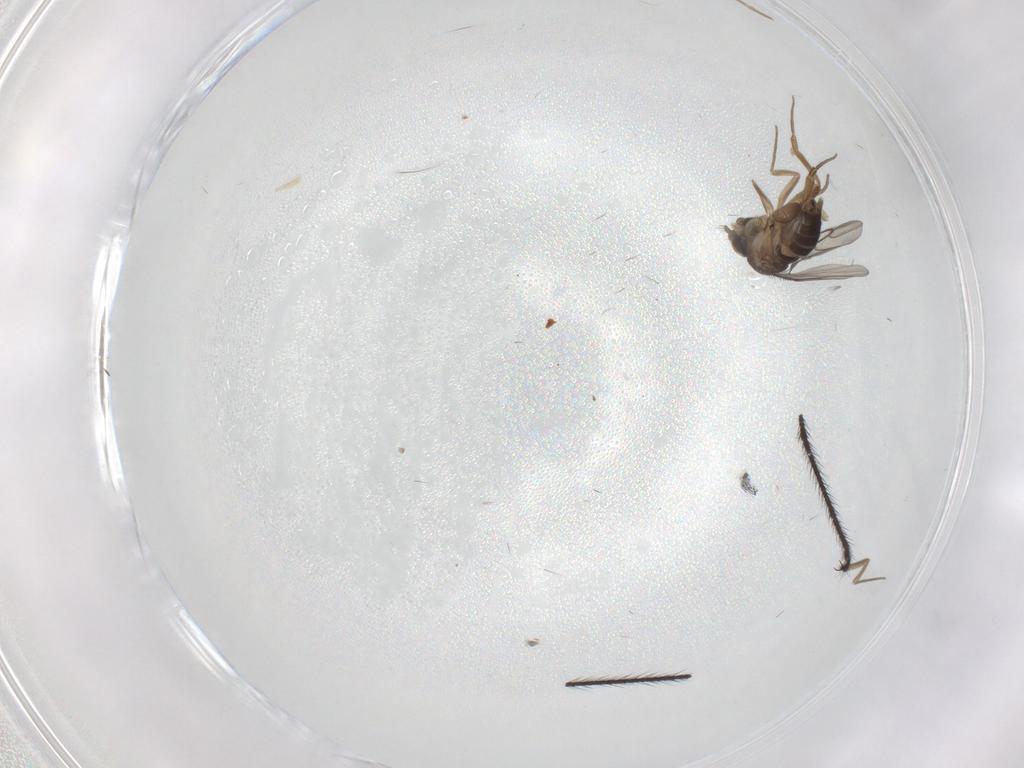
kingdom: Animalia
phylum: Arthropoda
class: Insecta
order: Diptera
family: Limoniidae
